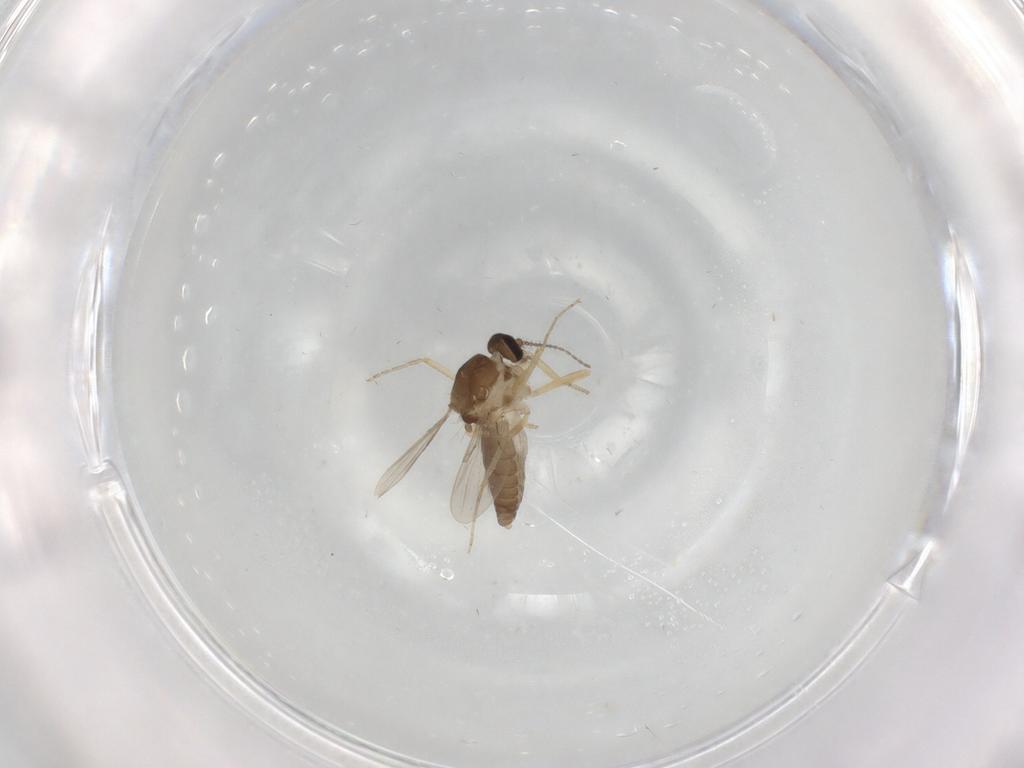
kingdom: Animalia
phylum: Arthropoda
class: Insecta
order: Diptera
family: Ceratopogonidae
